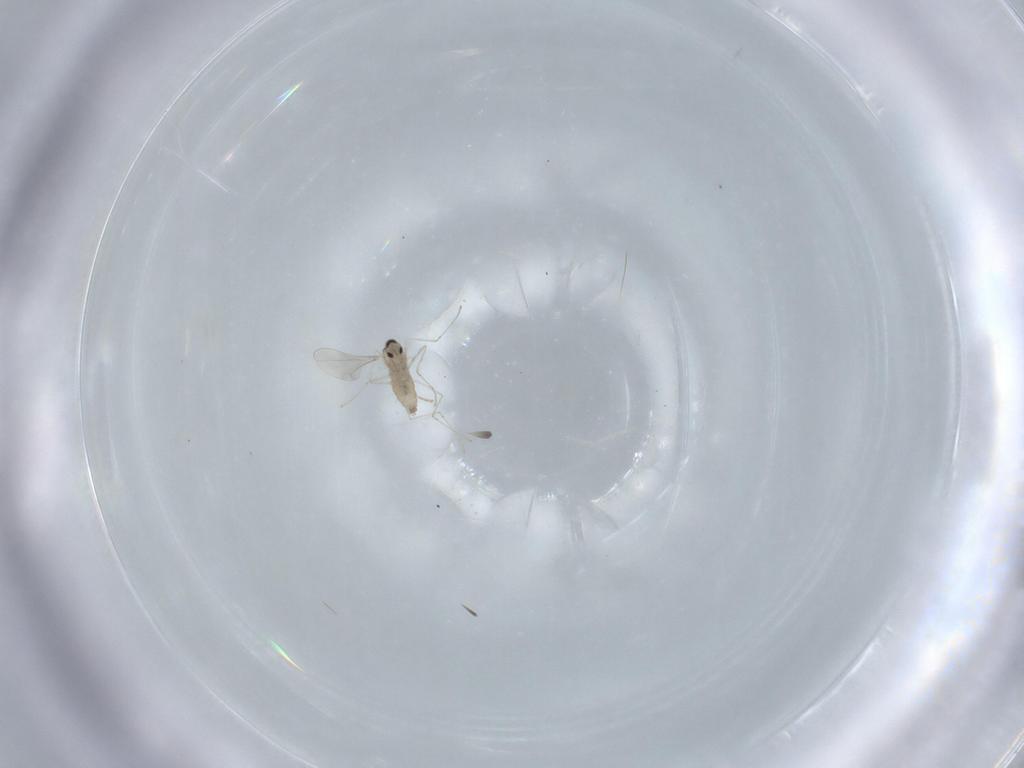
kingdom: Animalia
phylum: Arthropoda
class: Insecta
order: Diptera
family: Cecidomyiidae
